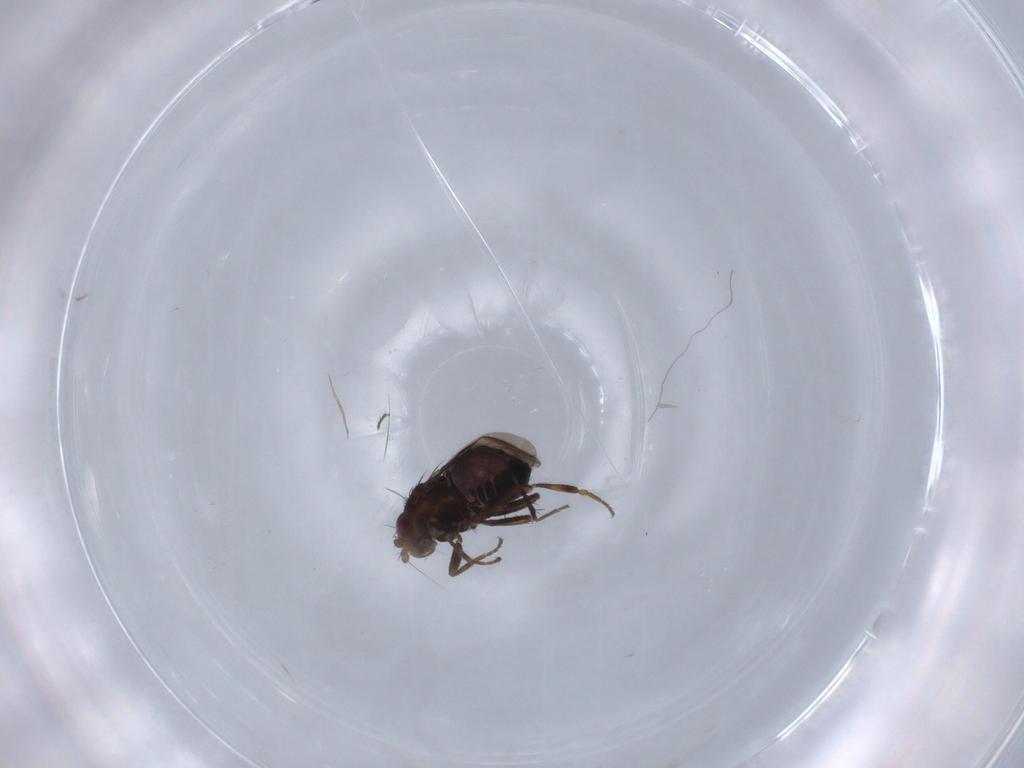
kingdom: Animalia
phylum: Arthropoda
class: Insecta
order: Diptera
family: Sphaeroceridae
